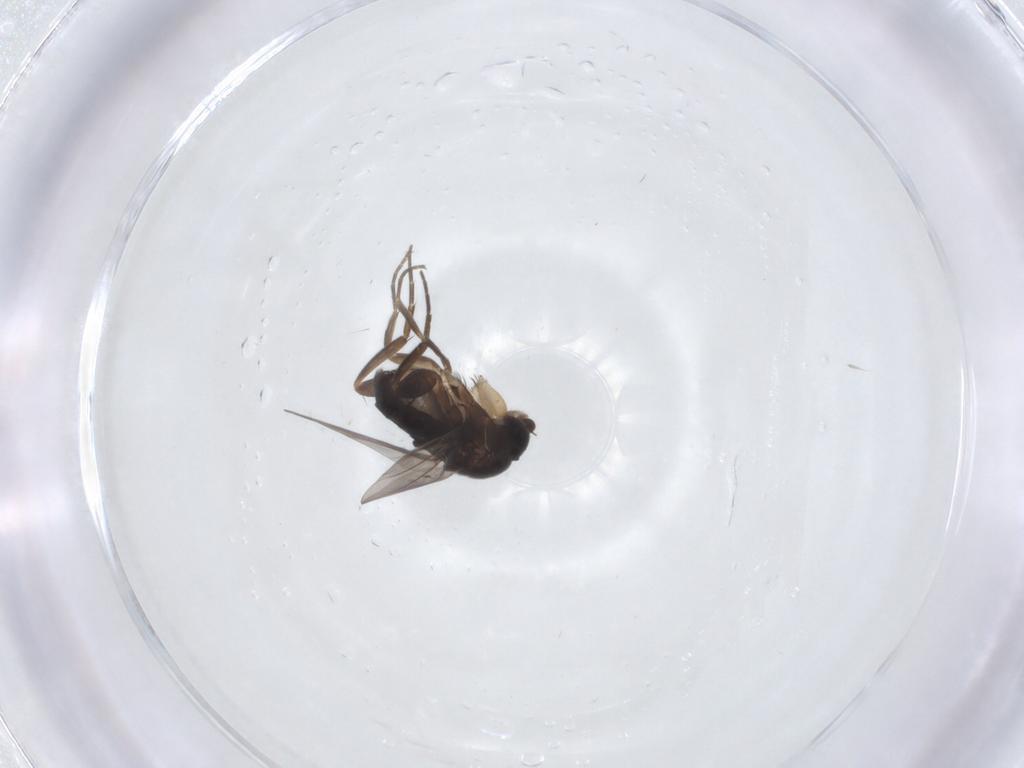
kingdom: Animalia
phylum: Arthropoda
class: Insecta
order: Diptera
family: Phoridae
